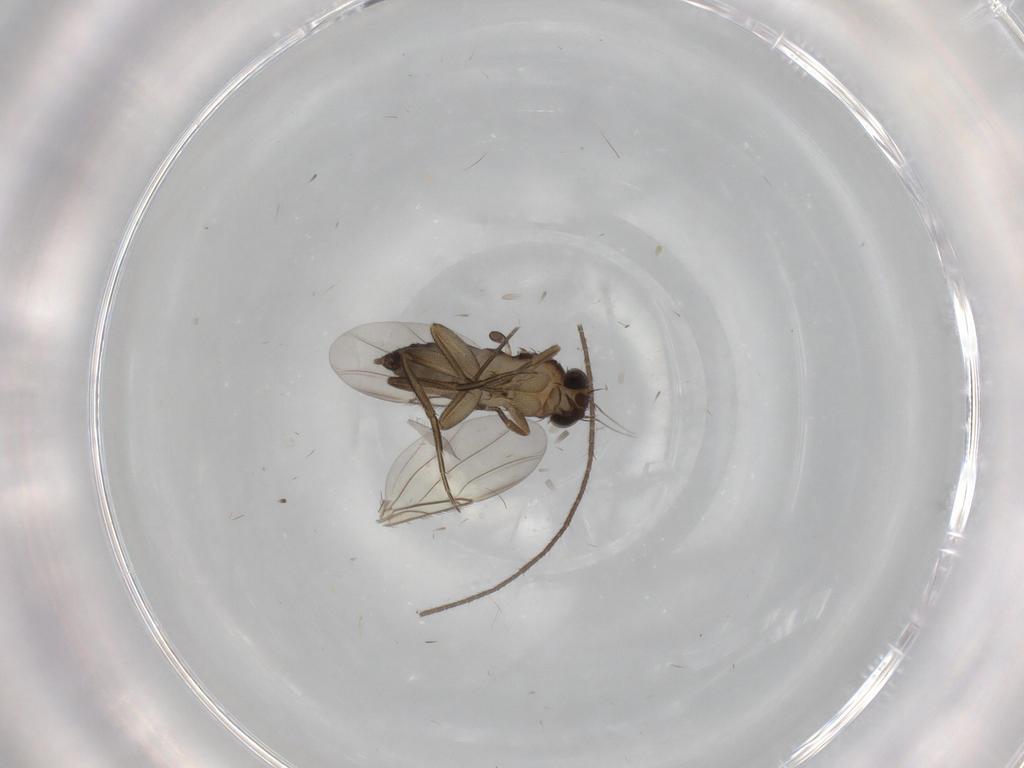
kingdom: Animalia
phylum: Arthropoda
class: Insecta
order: Diptera
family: Phoridae
